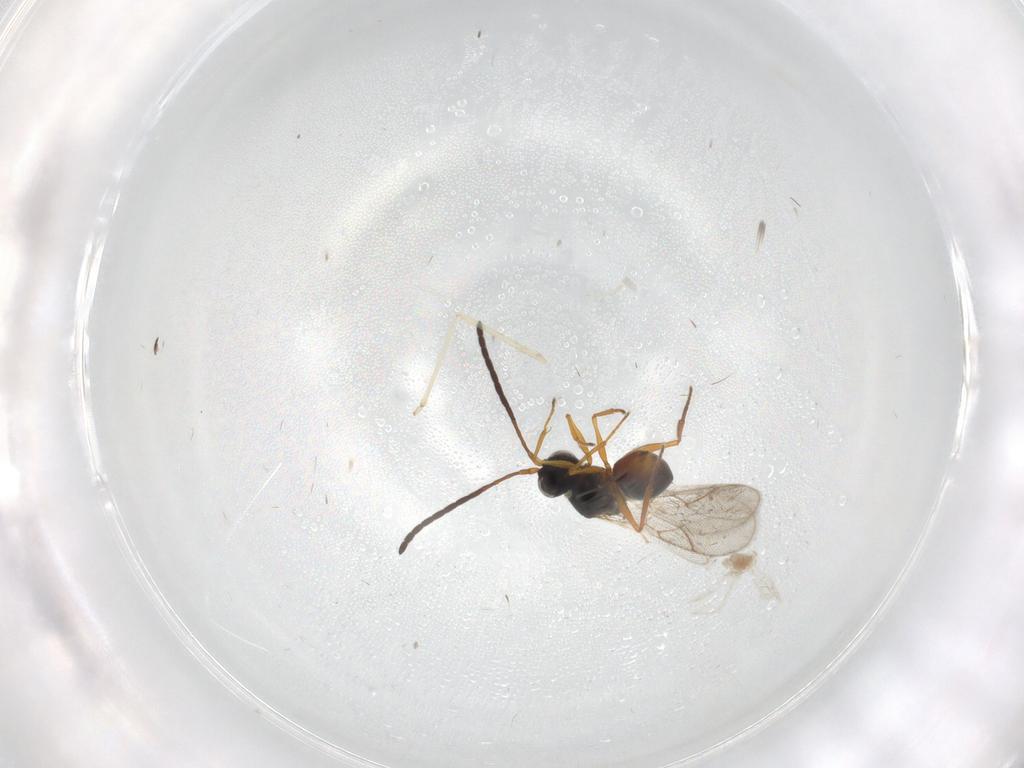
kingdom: Animalia
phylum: Arthropoda
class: Insecta
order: Hymenoptera
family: Figitidae
